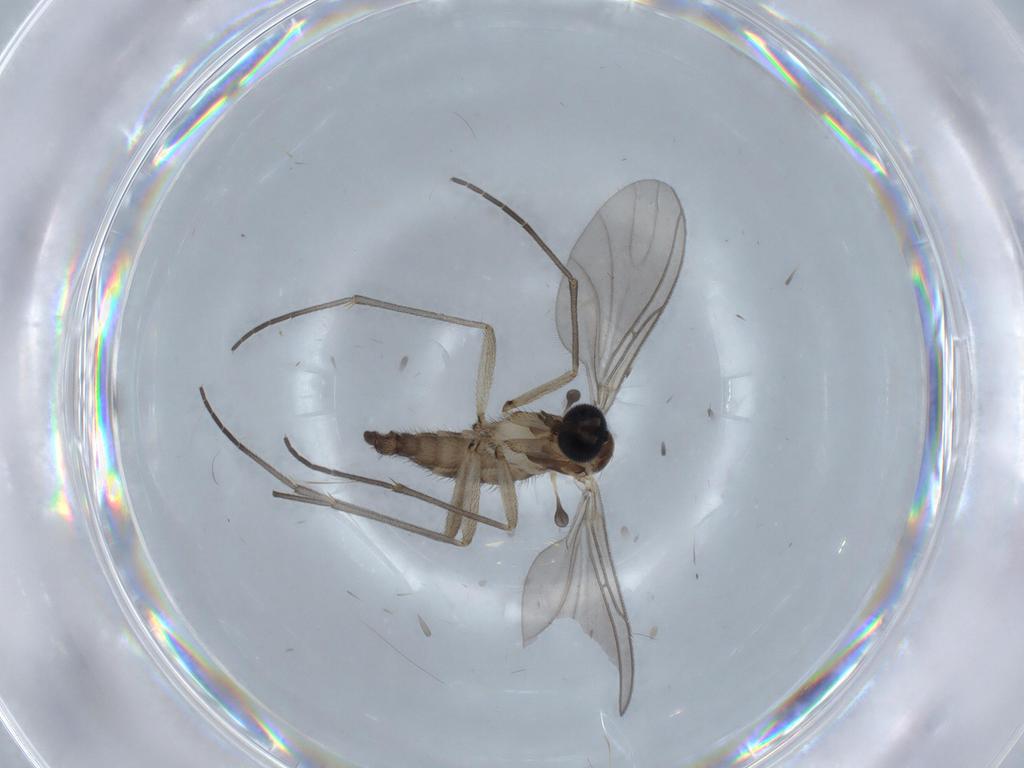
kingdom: Animalia
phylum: Arthropoda
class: Insecta
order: Diptera
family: Sciaridae
